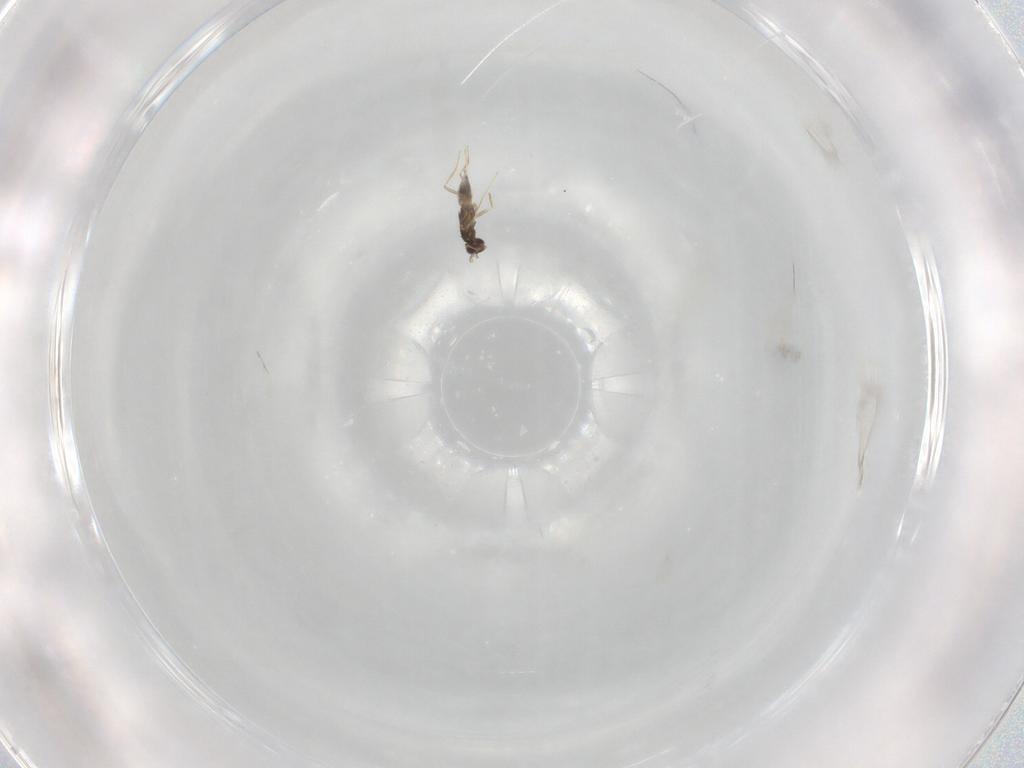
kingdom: Animalia
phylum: Arthropoda
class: Insecta
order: Hymenoptera
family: Mymaridae
